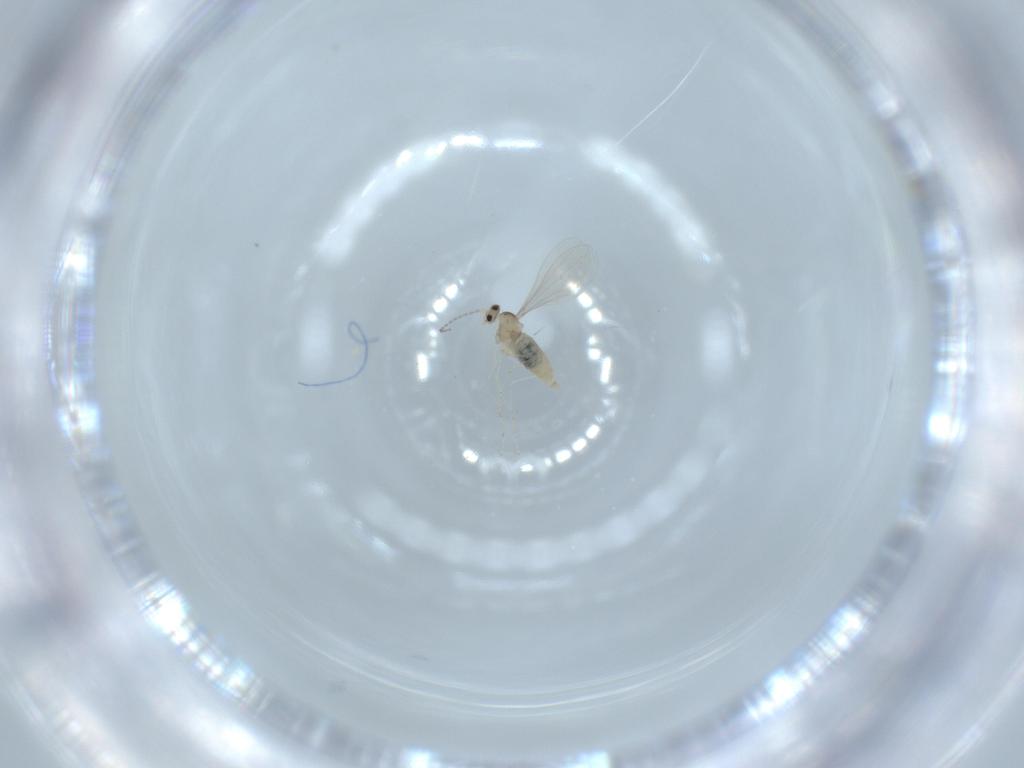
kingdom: Animalia
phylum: Arthropoda
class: Insecta
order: Diptera
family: Cecidomyiidae
